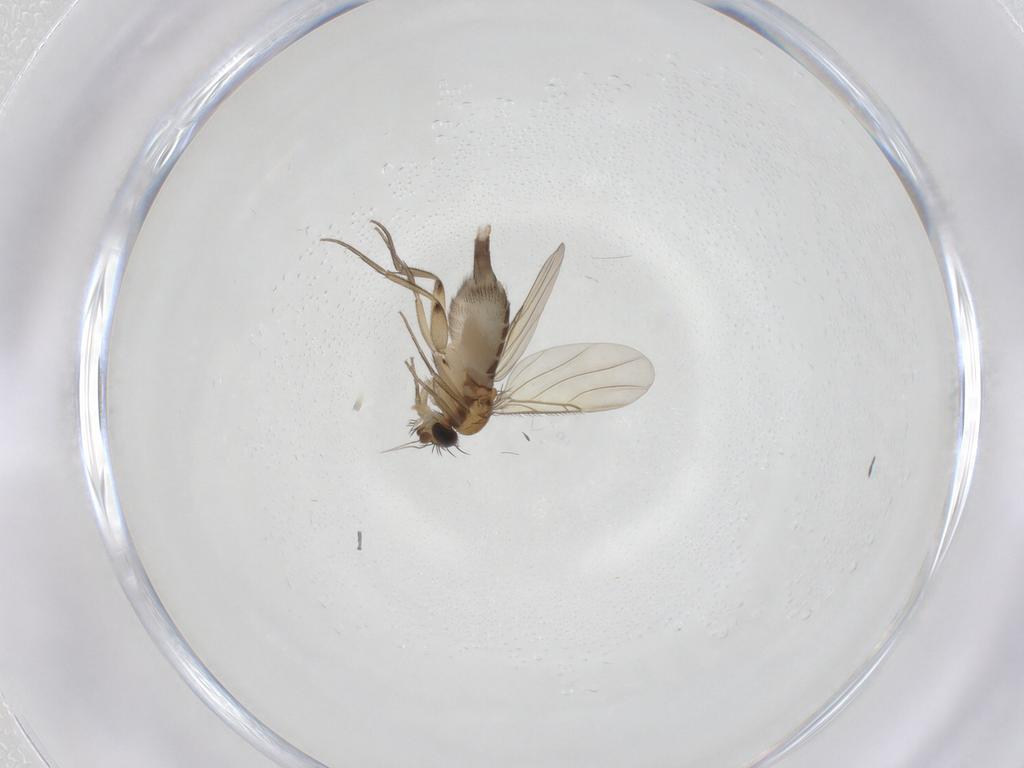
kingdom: Animalia
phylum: Arthropoda
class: Insecta
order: Diptera
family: Phoridae
